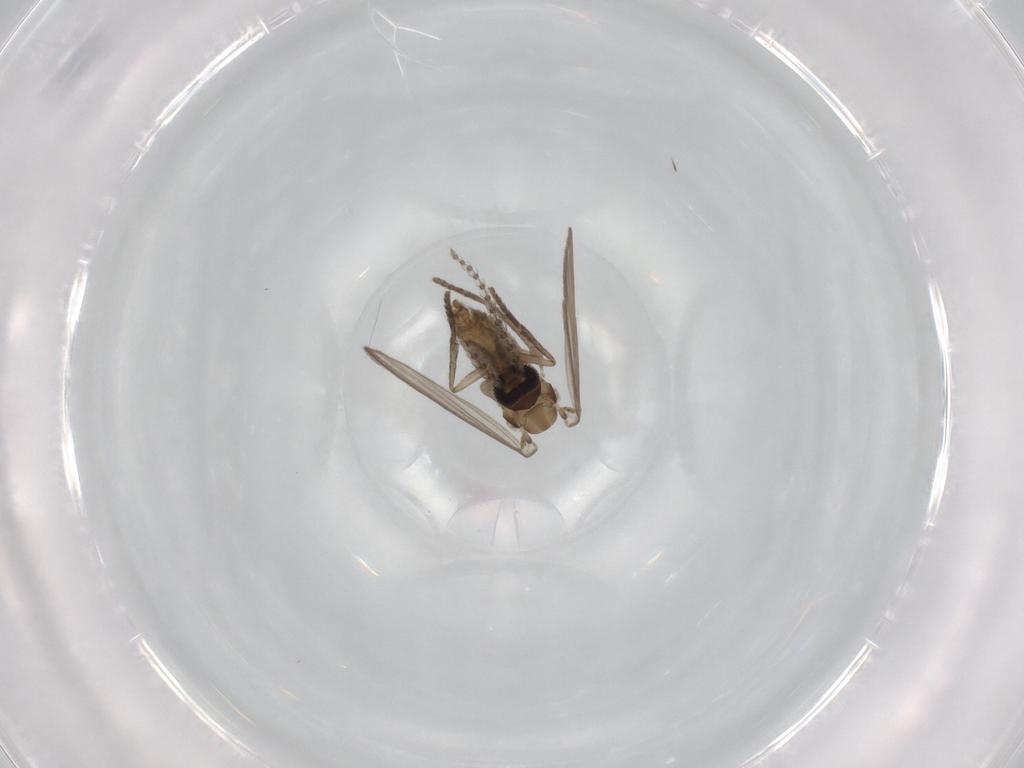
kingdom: Animalia
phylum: Arthropoda
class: Insecta
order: Diptera
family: Cecidomyiidae
